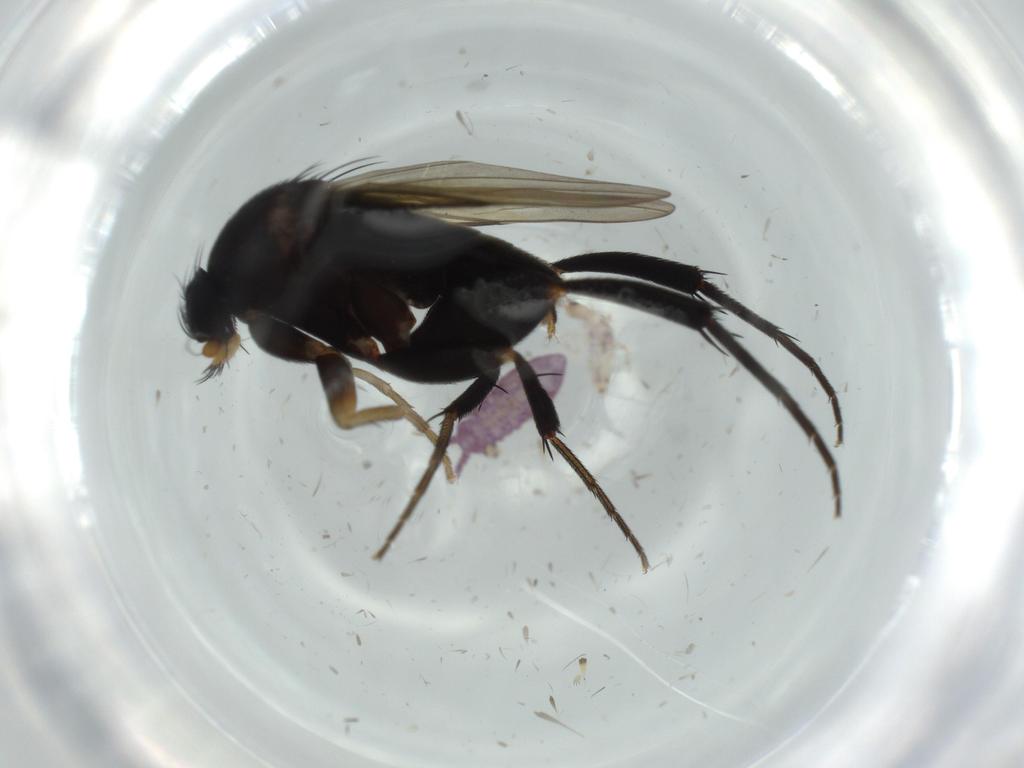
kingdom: Animalia
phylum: Arthropoda
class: Insecta
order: Diptera
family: Phoridae
